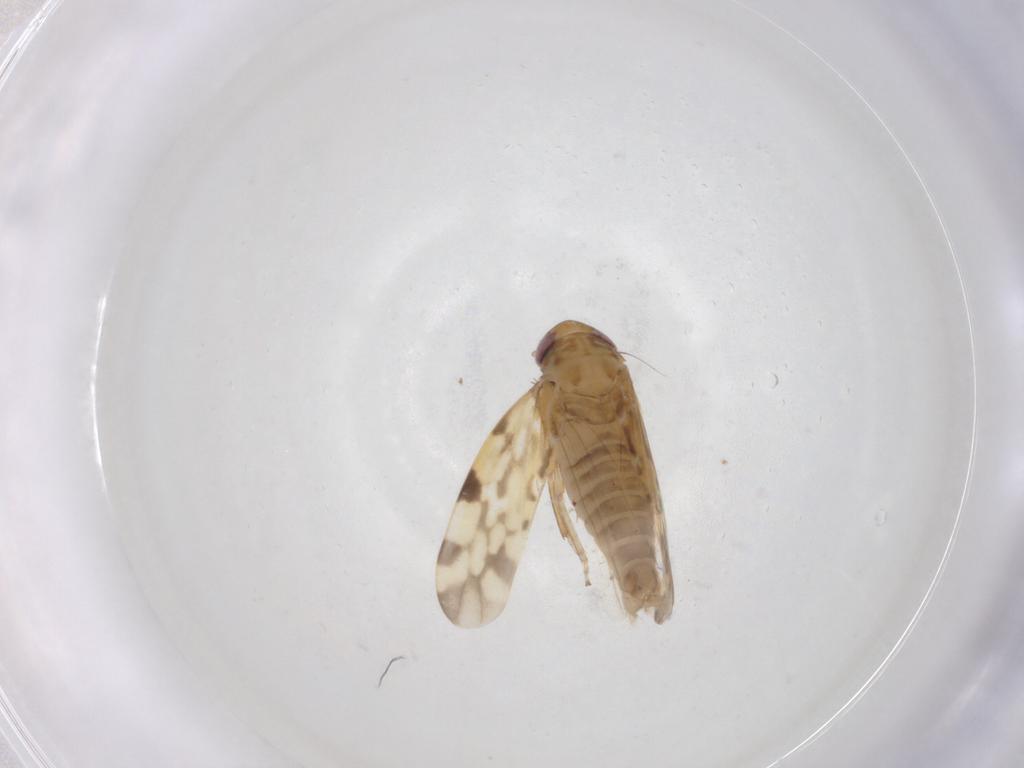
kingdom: Animalia
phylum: Arthropoda
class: Insecta
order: Hemiptera
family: Cicadellidae
